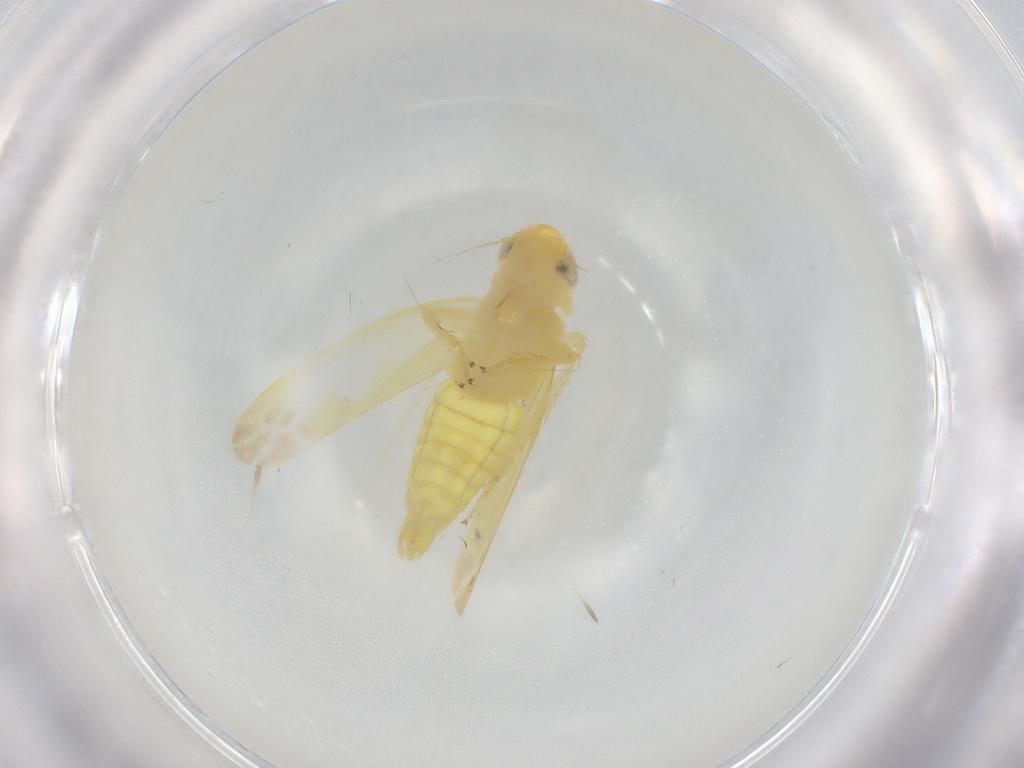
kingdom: Animalia
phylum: Arthropoda
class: Insecta
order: Hemiptera
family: Cicadellidae
